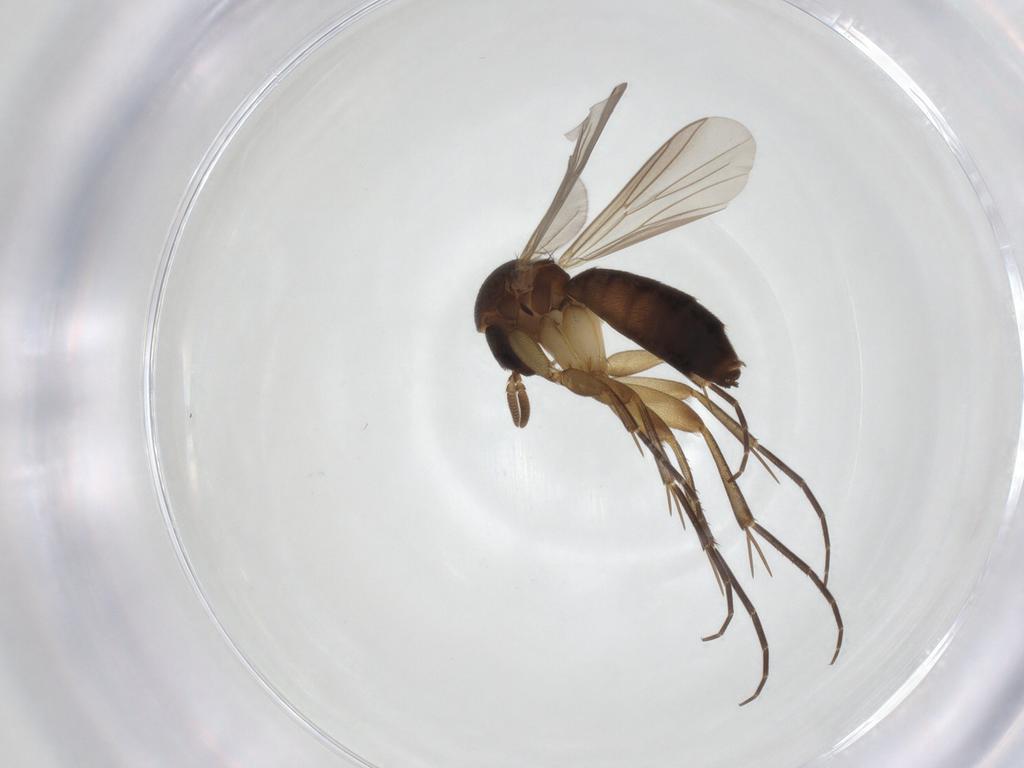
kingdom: Animalia
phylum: Arthropoda
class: Insecta
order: Diptera
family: Mycetophilidae
